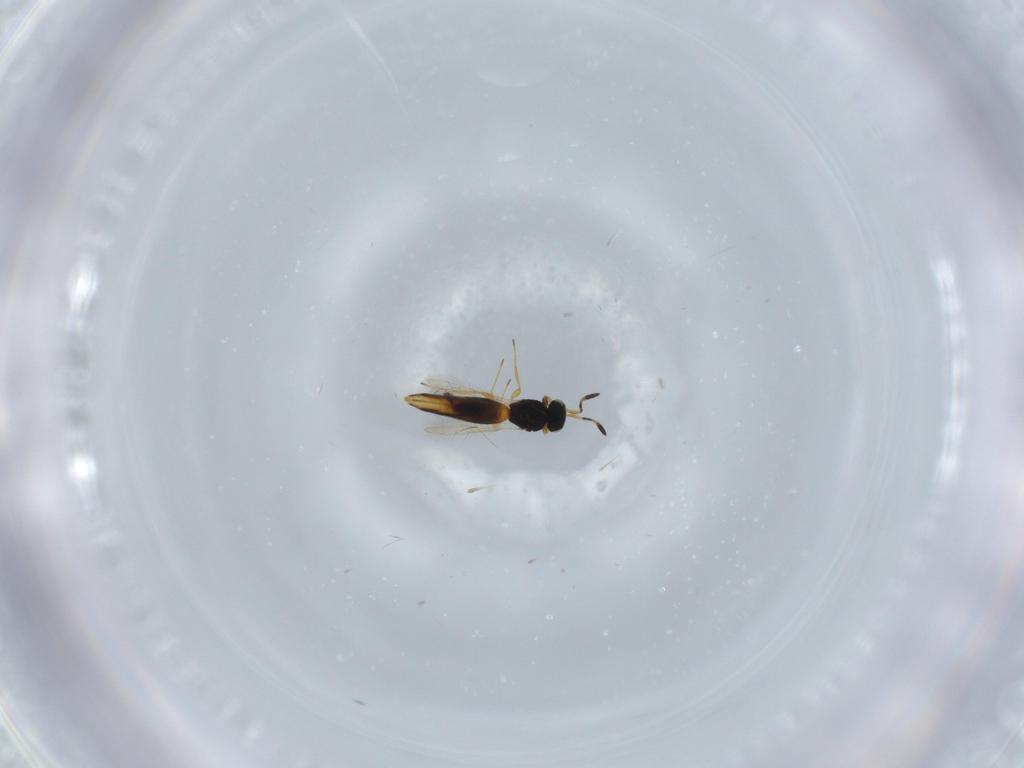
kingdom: Animalia
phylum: Arthropoda
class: Insecta
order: Hymenoptera
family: Scelionidae
